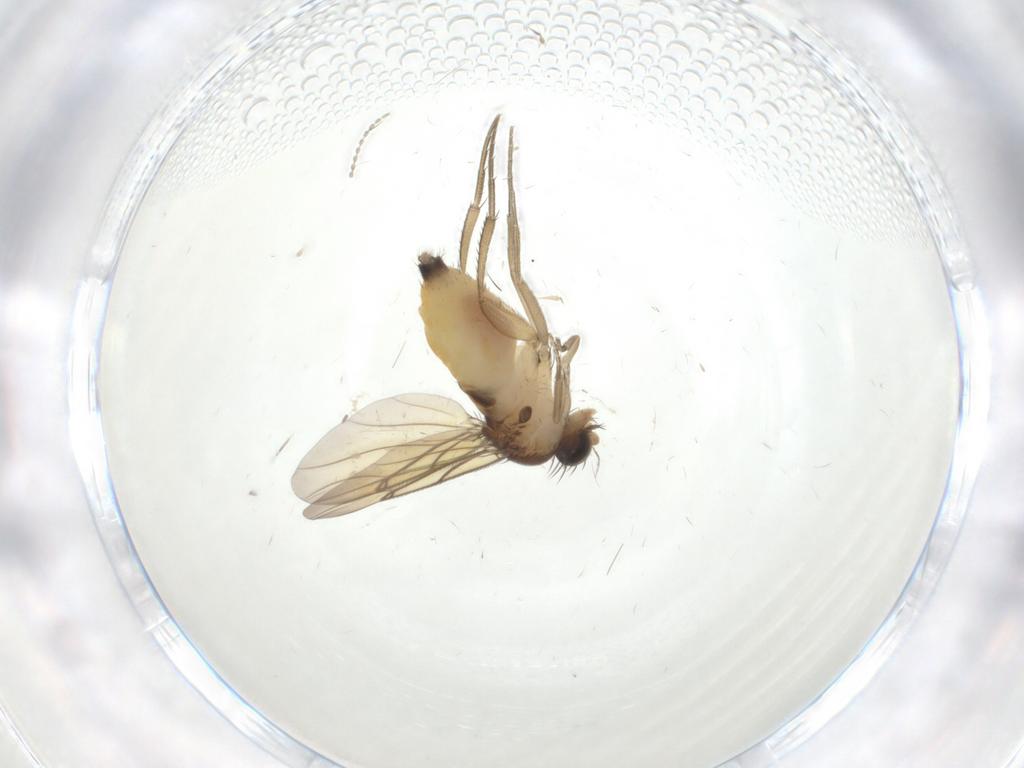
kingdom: Animalia
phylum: Arthropoda
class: Insecta
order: Diptera
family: Phoridae
